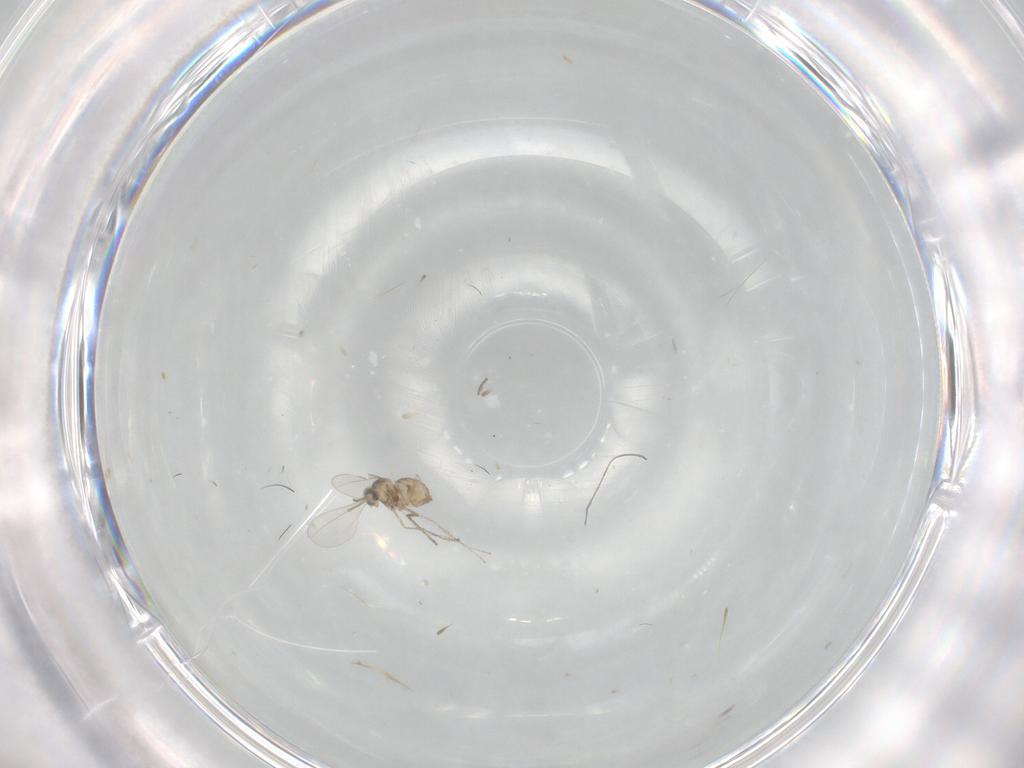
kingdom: Animalia
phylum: Arthropoda
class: Insecta
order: Diptera
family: Cecidomyiidae
